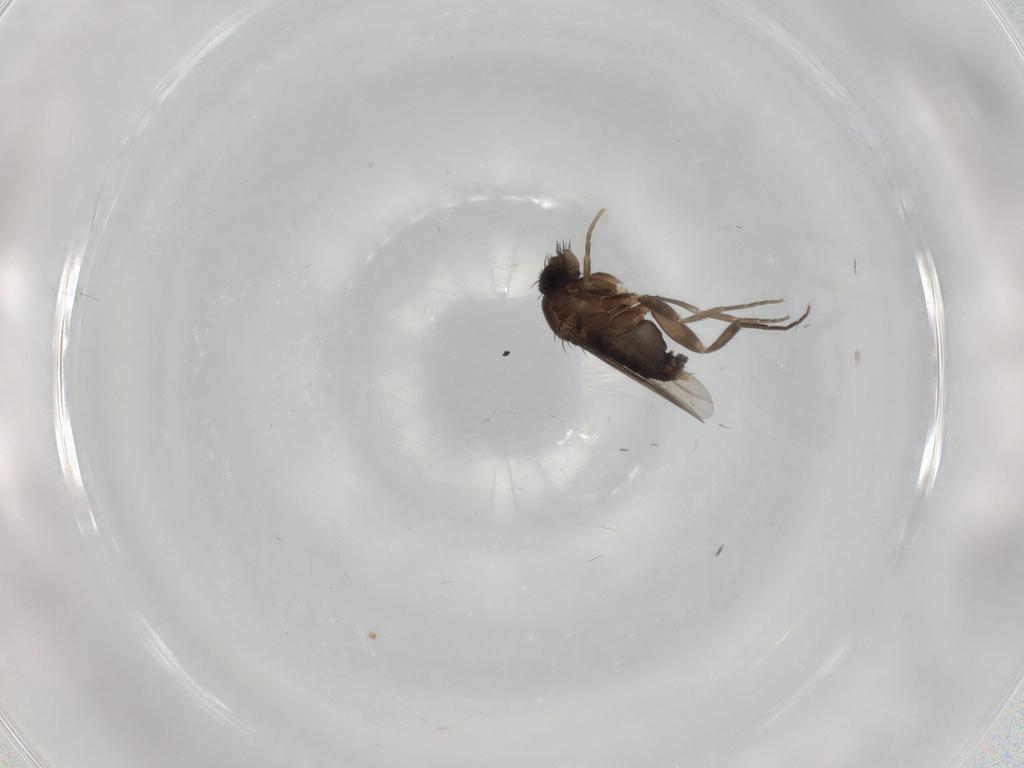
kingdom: Animalia
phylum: Arthropoda
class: Insecta
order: Diptera
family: Phoridae
